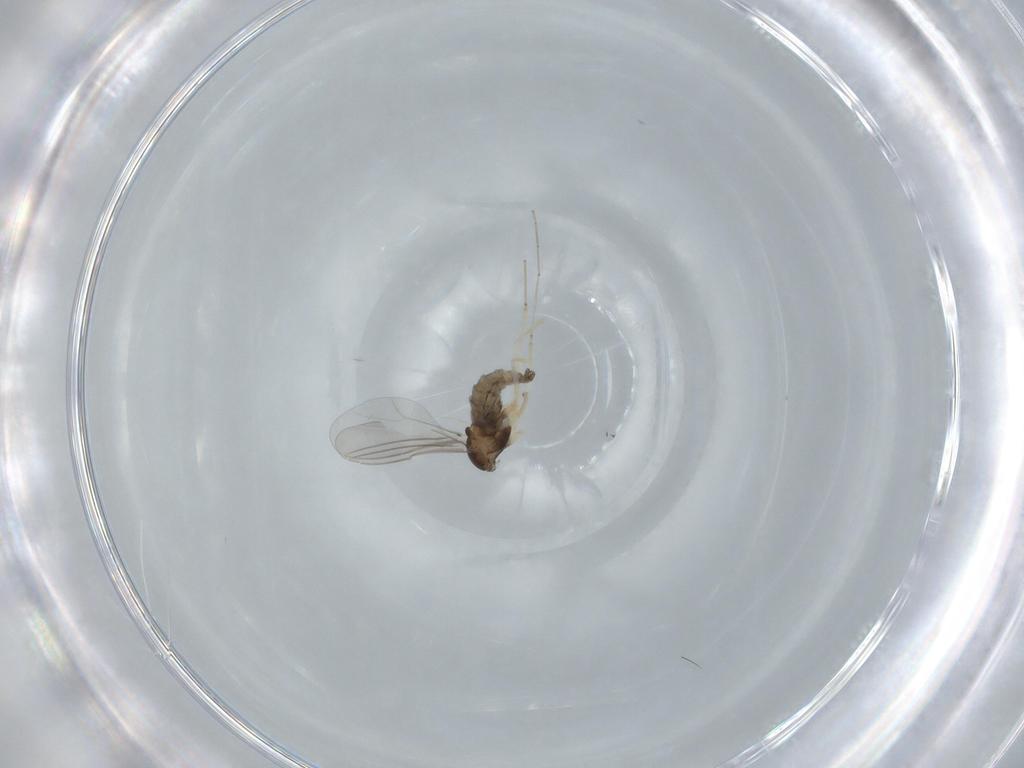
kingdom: Animalia
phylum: Arthropoda
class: Insecta
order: Diptera
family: Cecidomyiidae
